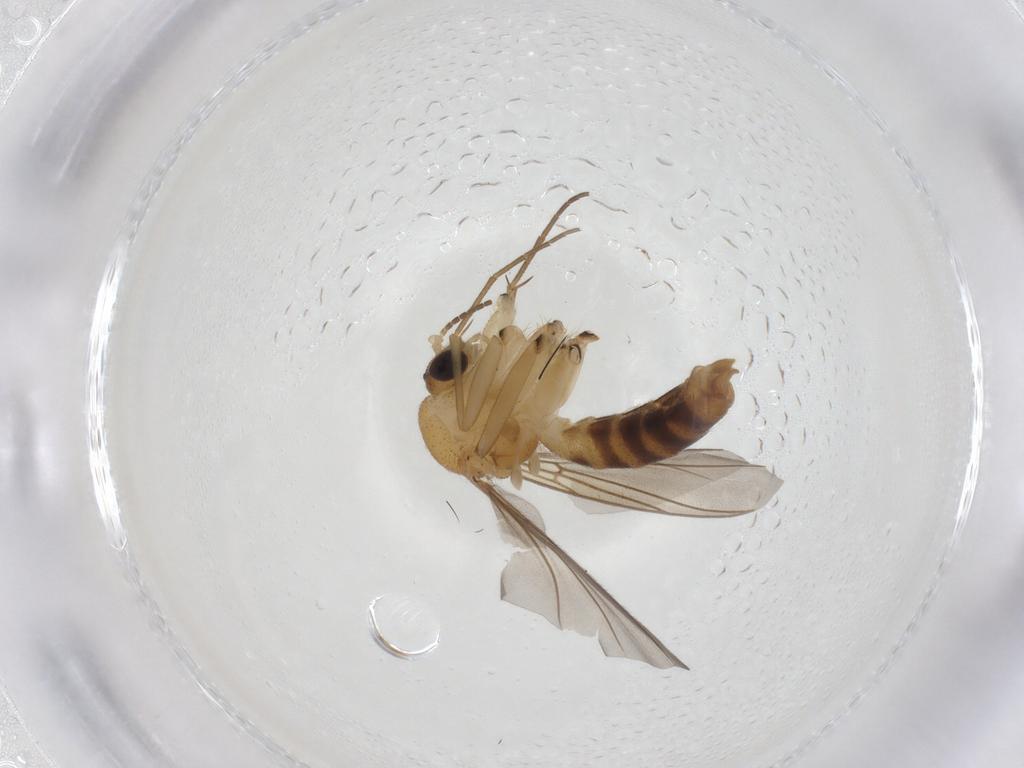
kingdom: Animalia
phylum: Arthropoda
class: Insecta
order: Diptera
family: Mycetophilidae
